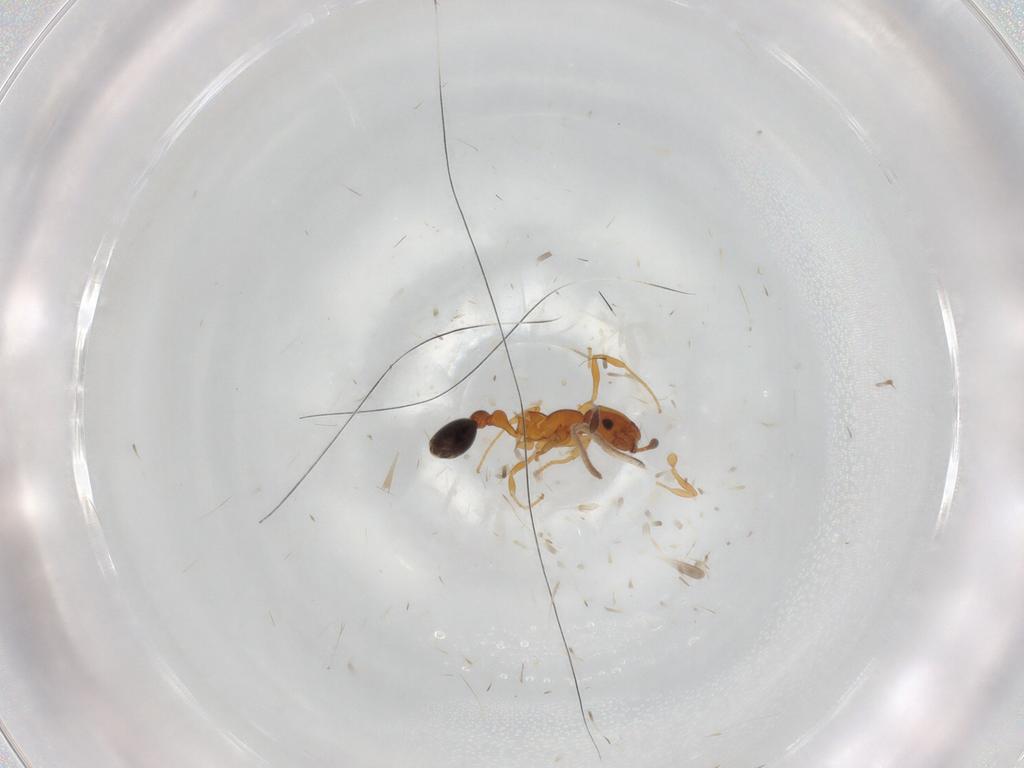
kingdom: Animalia
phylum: Arthropoda
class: Insecta
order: Hymenoptera
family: Formicidae
